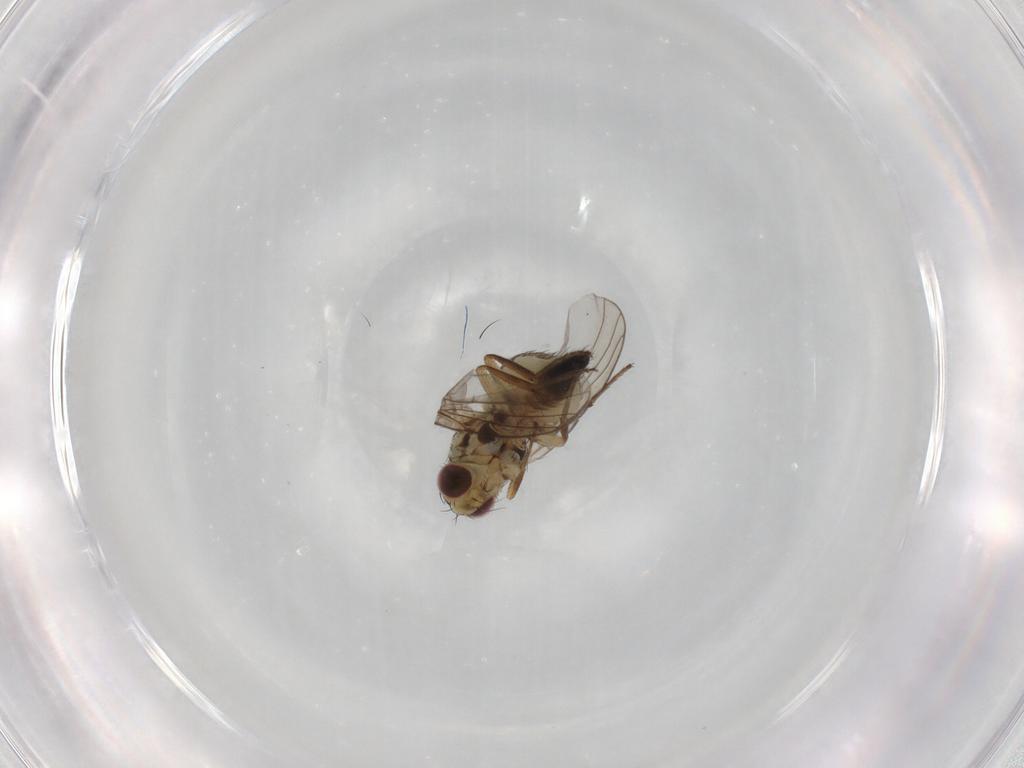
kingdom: Animalia
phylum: Arthropoda
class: Insecta
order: Diptera
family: Agromyzidae
